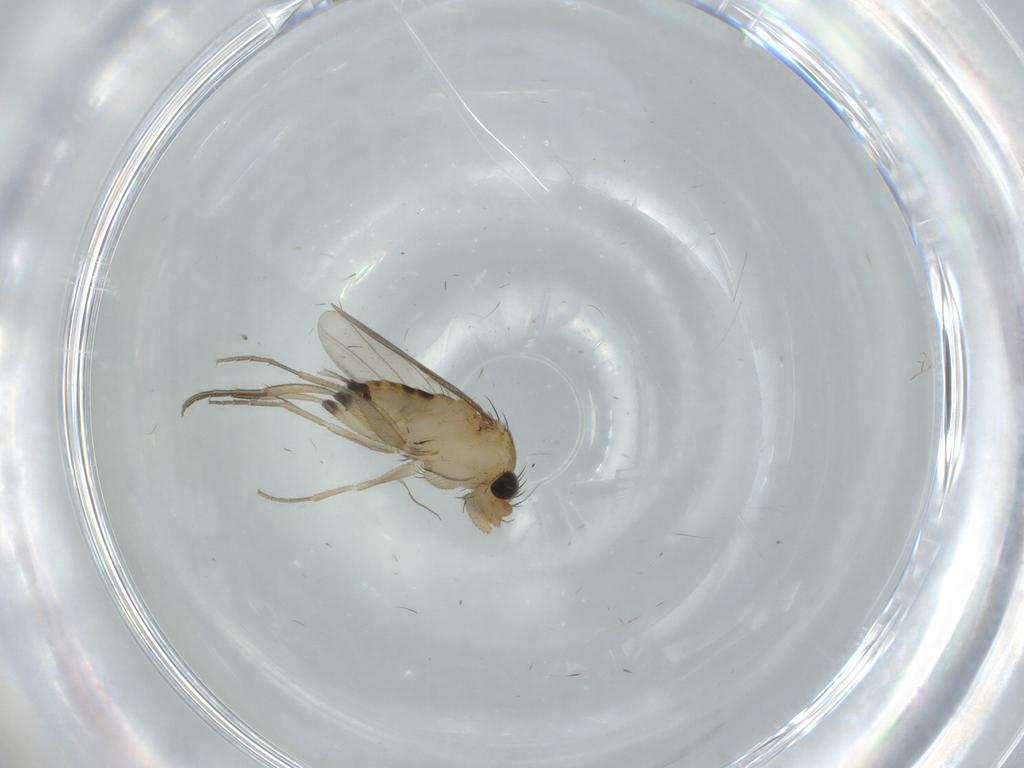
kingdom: Animalia
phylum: Arthropoda
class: Insecta
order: Diptera
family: Phoridae
